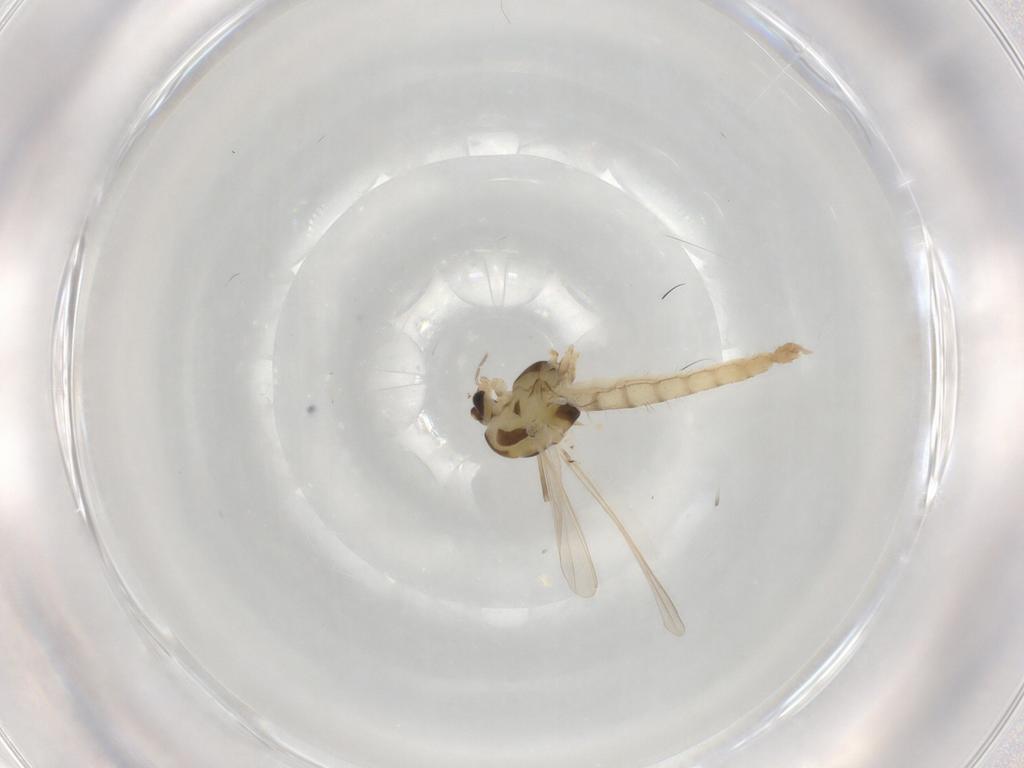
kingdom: Animalia
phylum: Arthropoda
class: Insecta
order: Diptera
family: Chironomidae
